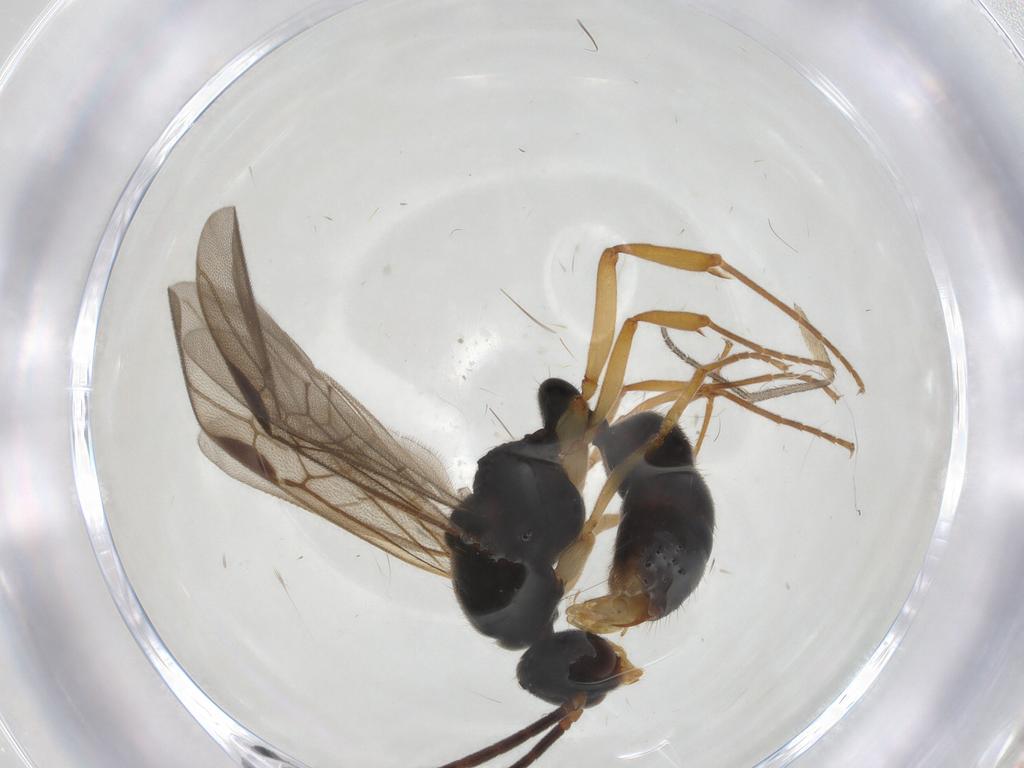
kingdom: Animalia
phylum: Arthropoda
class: Insecta
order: Hymenoptera
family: Formicidae
